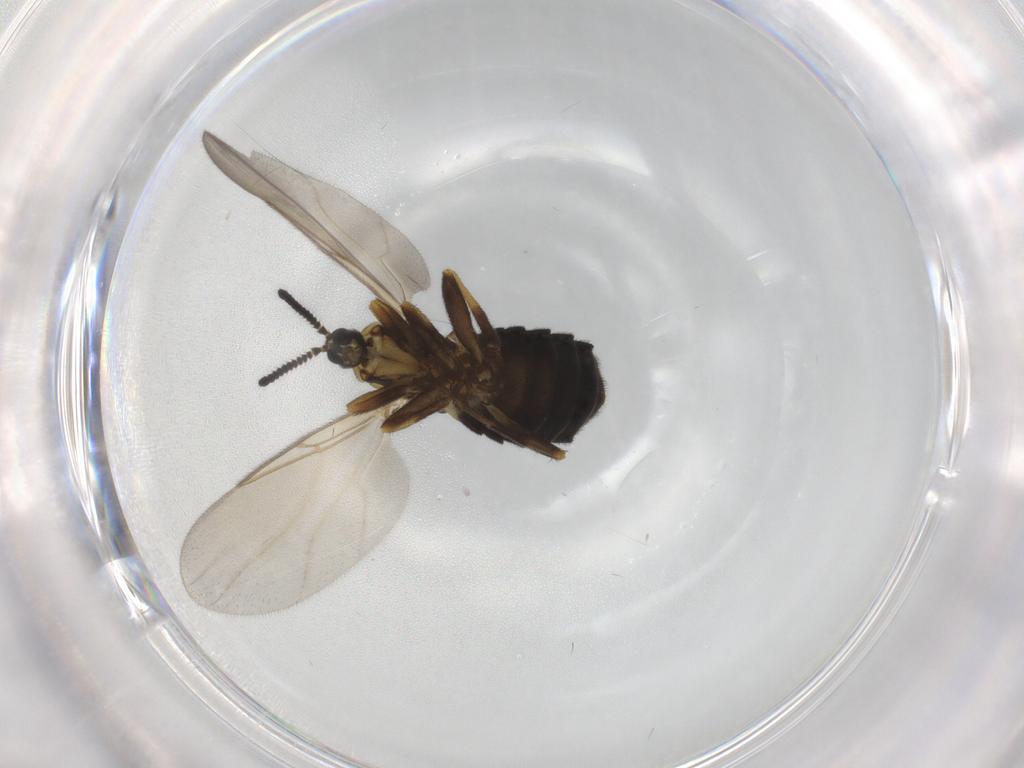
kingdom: Animalia
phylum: Arthropoda
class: Insecta
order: Diptera
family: Scatopsidae
